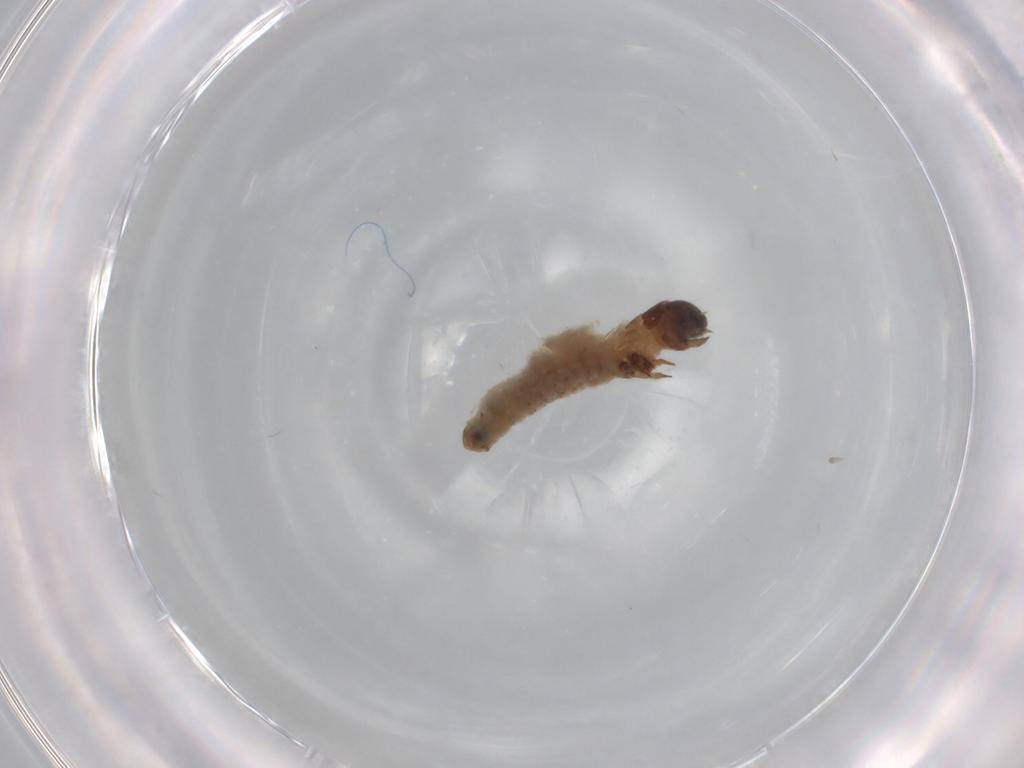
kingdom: Animalia
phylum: Arthropoda
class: Insecta
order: Lepidoptera
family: Psychidae
